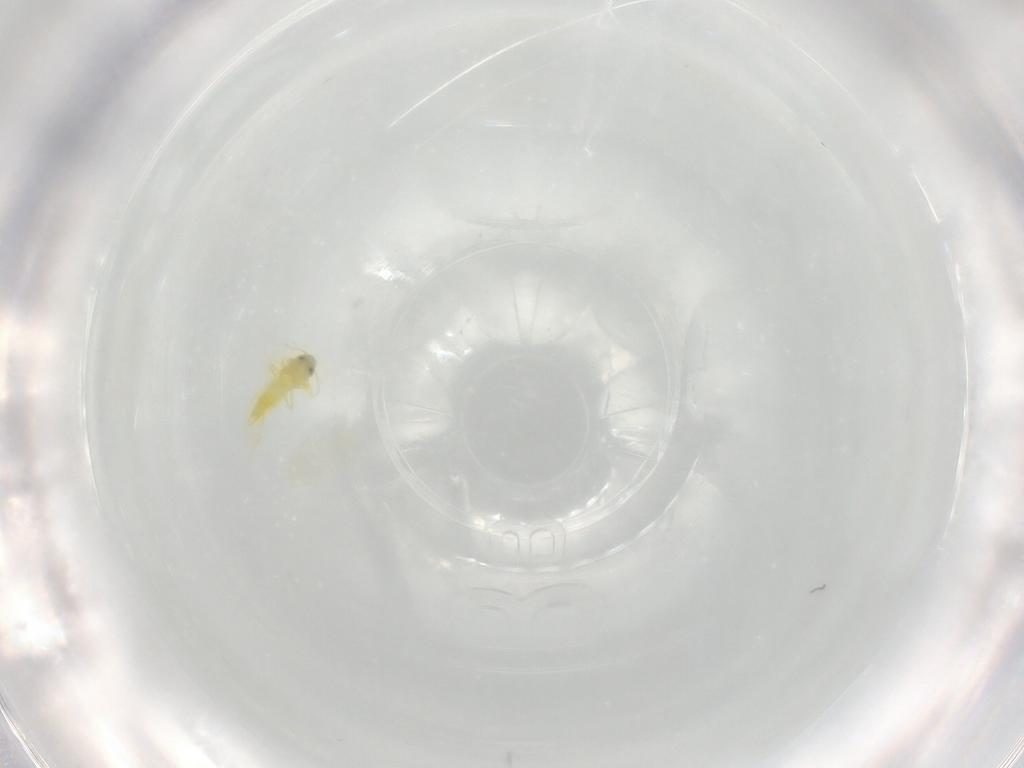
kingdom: Animalia
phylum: Arthropoda
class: Insecta
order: Hemiptera
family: Aleyrodidae
